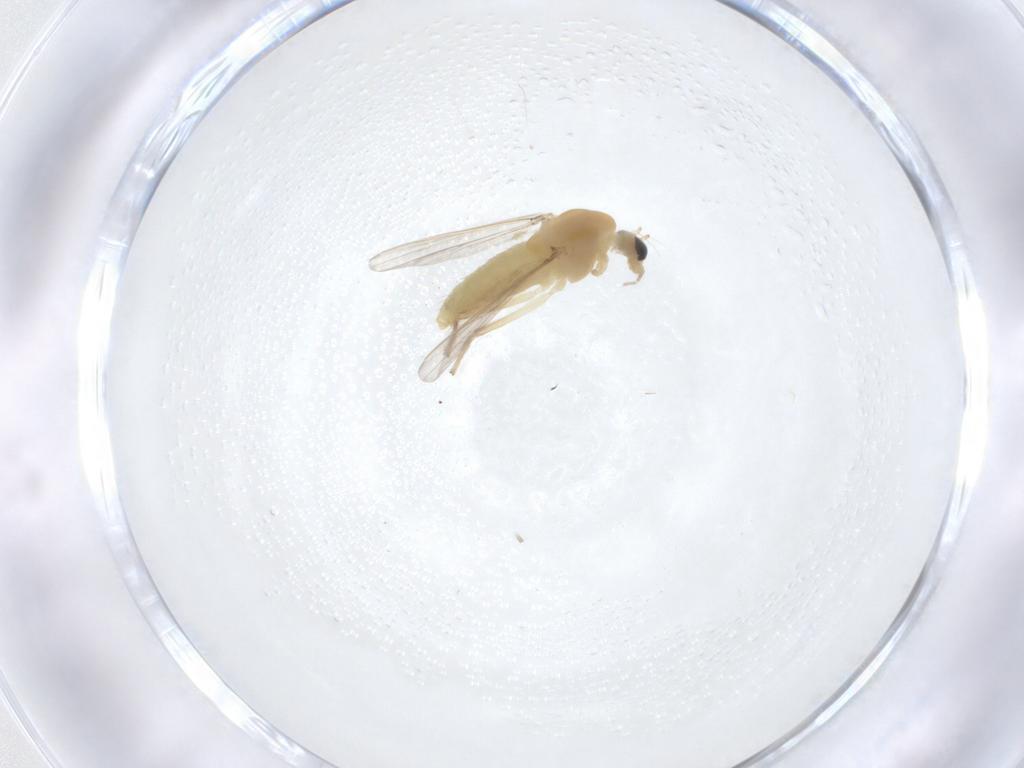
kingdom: Animalia
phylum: Arthropoda
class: Insecta
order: Diptera
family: Chironomidae
